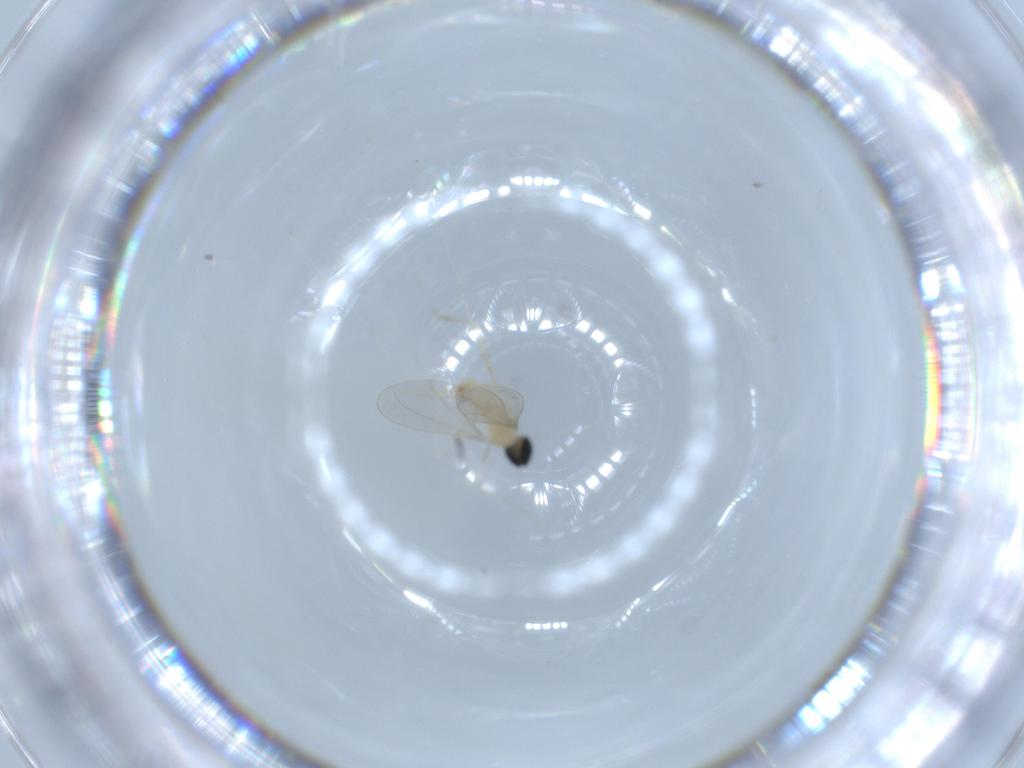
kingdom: Animalia
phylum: Arthropoda
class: Insecta
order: Diptera
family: Cecidomyiidae
